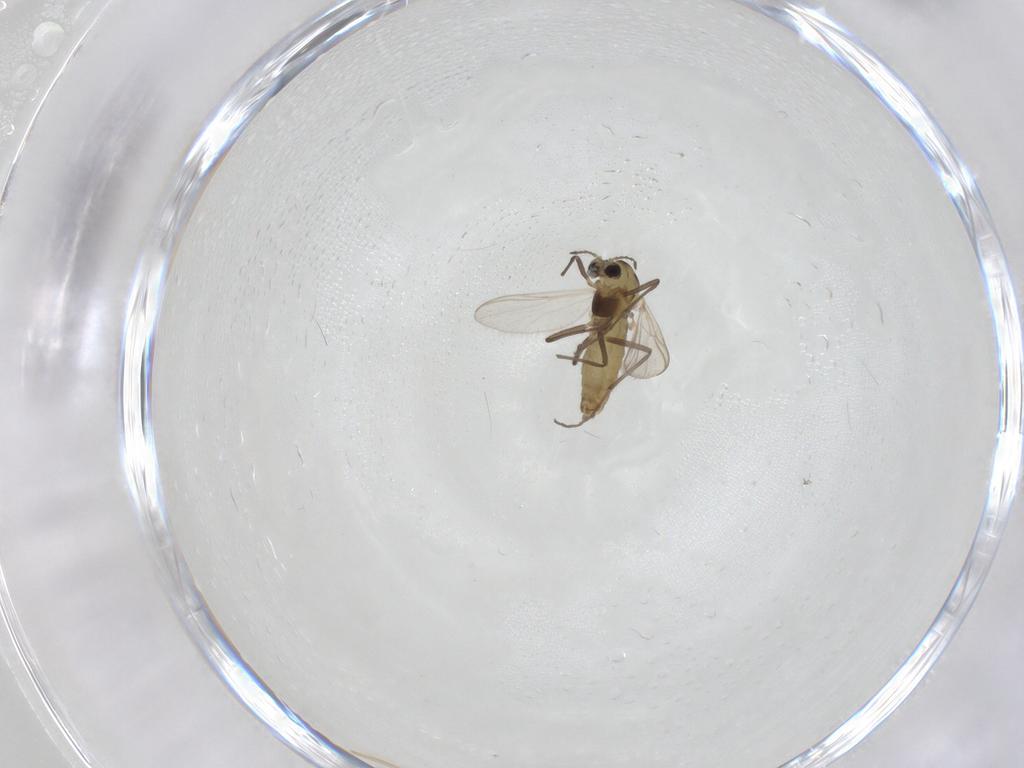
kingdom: Animalia
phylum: Arthropoda
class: Insecta
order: Diptera
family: Chironomidae
